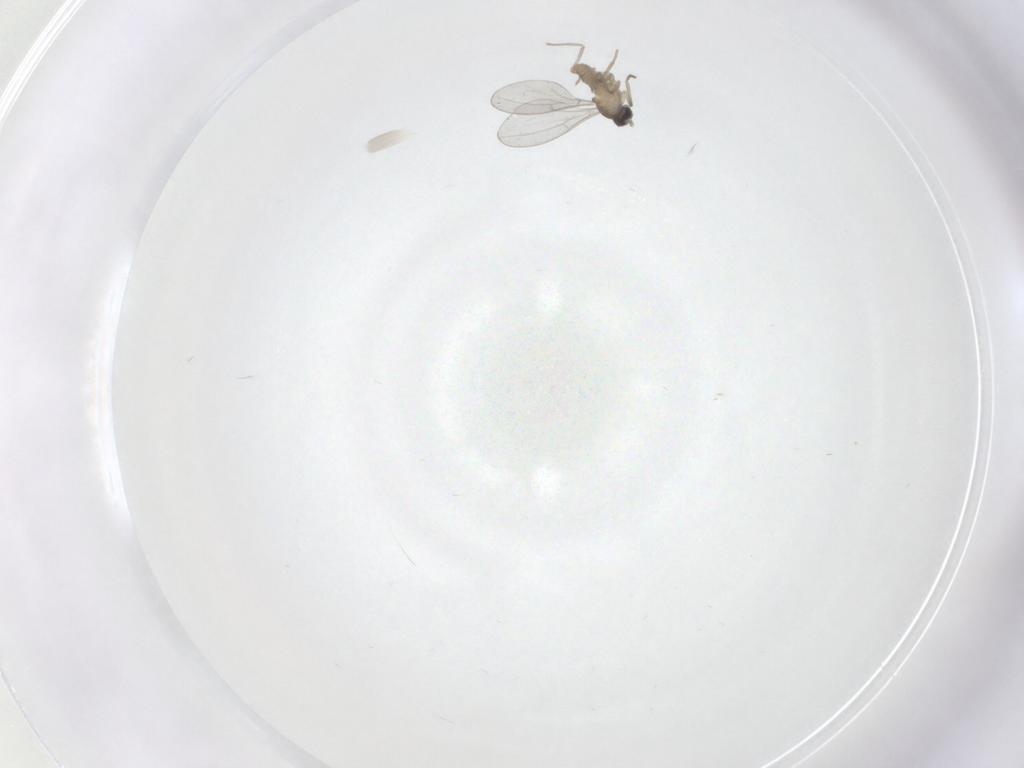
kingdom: Animalia
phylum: Arthropoda
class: Insecta
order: Diptera
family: Cecidomyiidae
